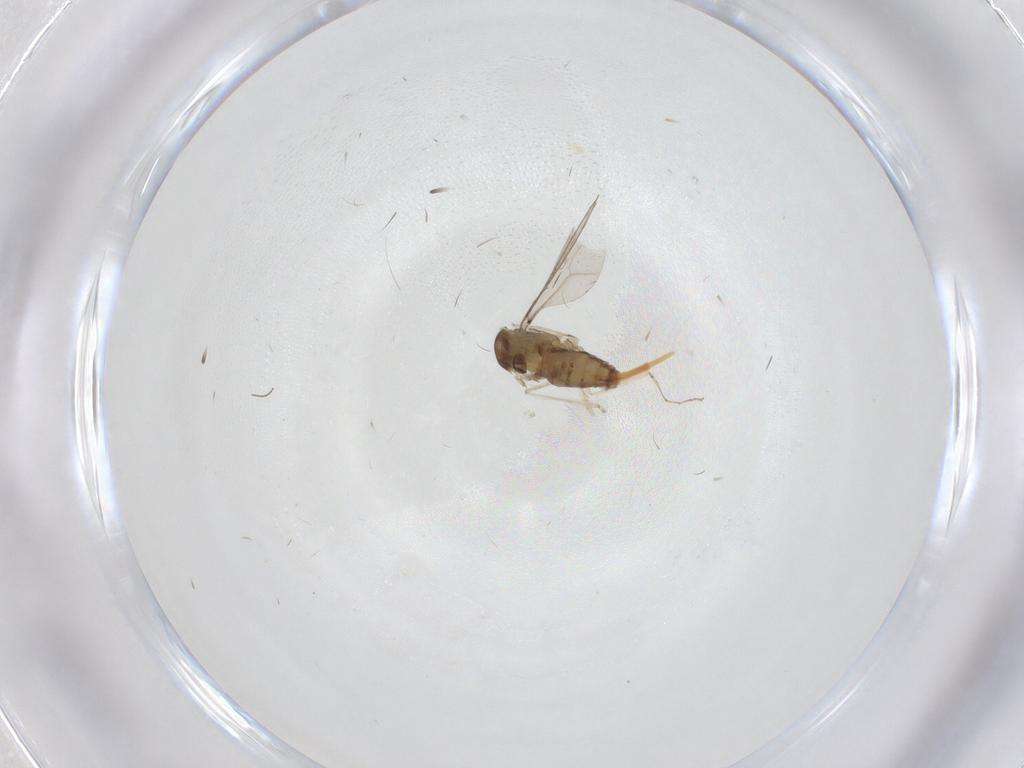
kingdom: Animalia
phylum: Arthropoda
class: Insecta
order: Diptera
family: Cecidomyiidae
